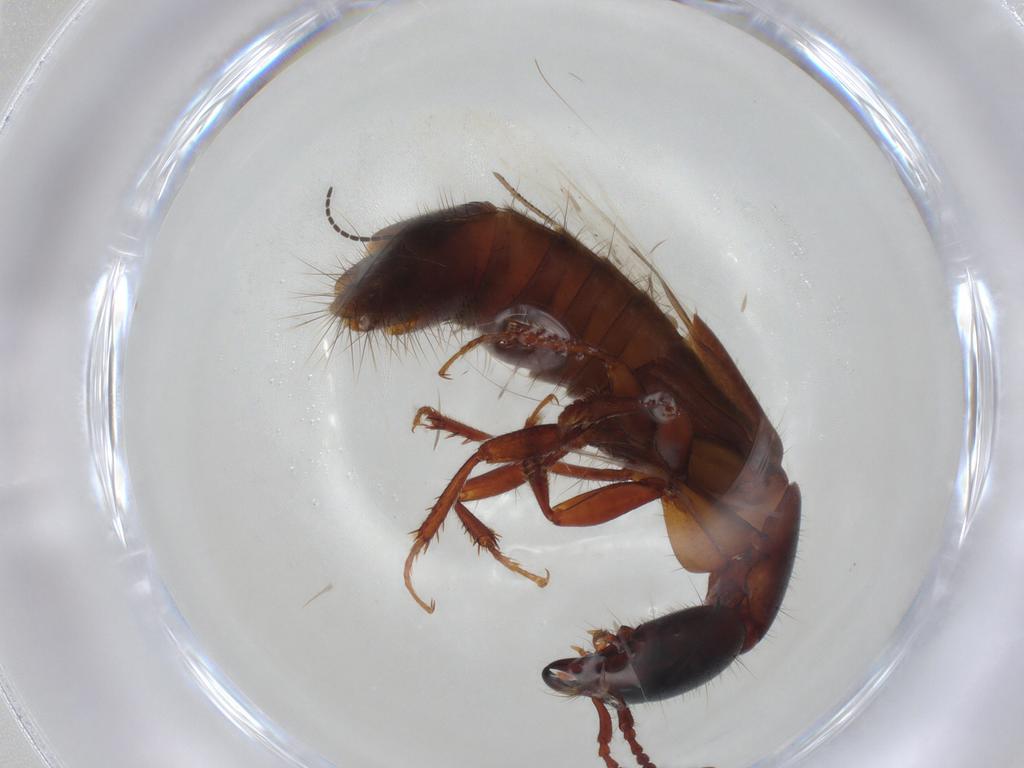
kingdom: Animalia
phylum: Arthropoda
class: Insecta
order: Coleoptera
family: Staphylinidae
